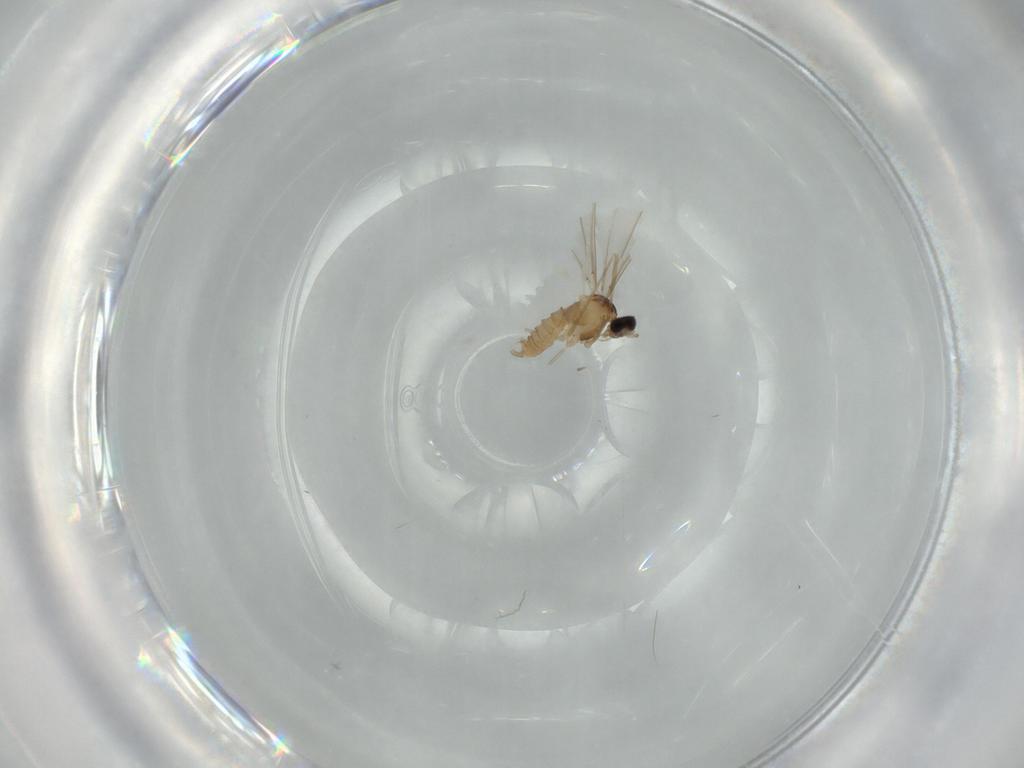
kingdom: Animalia
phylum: Arthropoda
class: Insecta
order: Diptera
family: Cecidomyiidae
